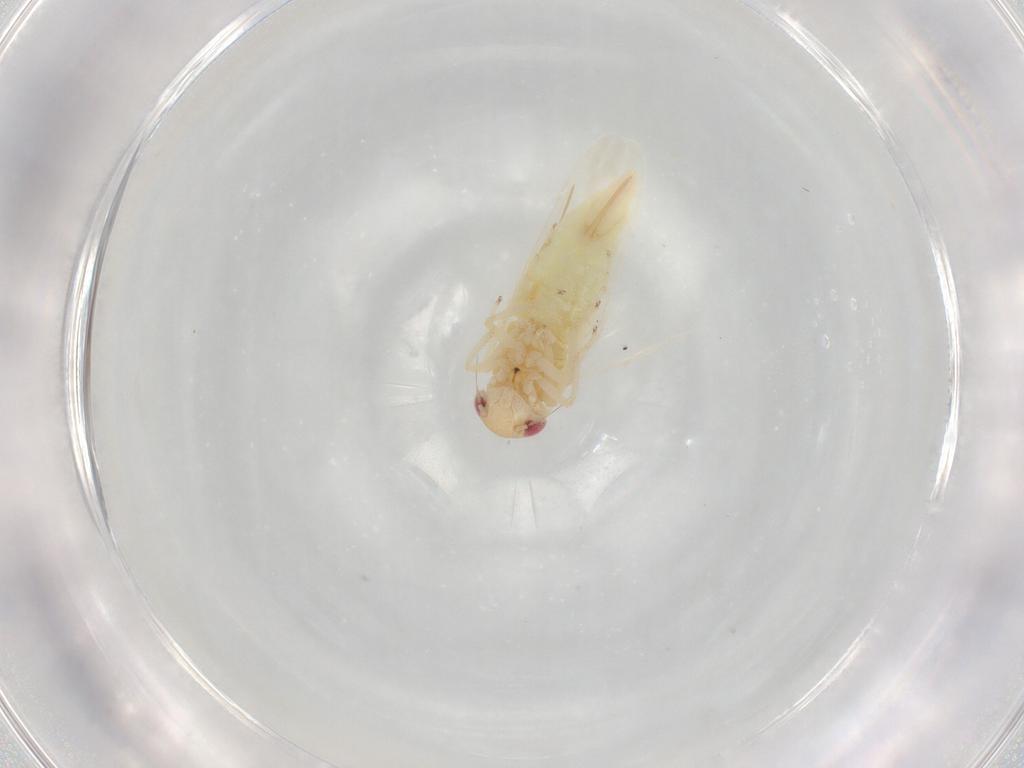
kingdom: Animalia
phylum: Arthropoda
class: Insecta
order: Hemiptera
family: Cicadellidae
